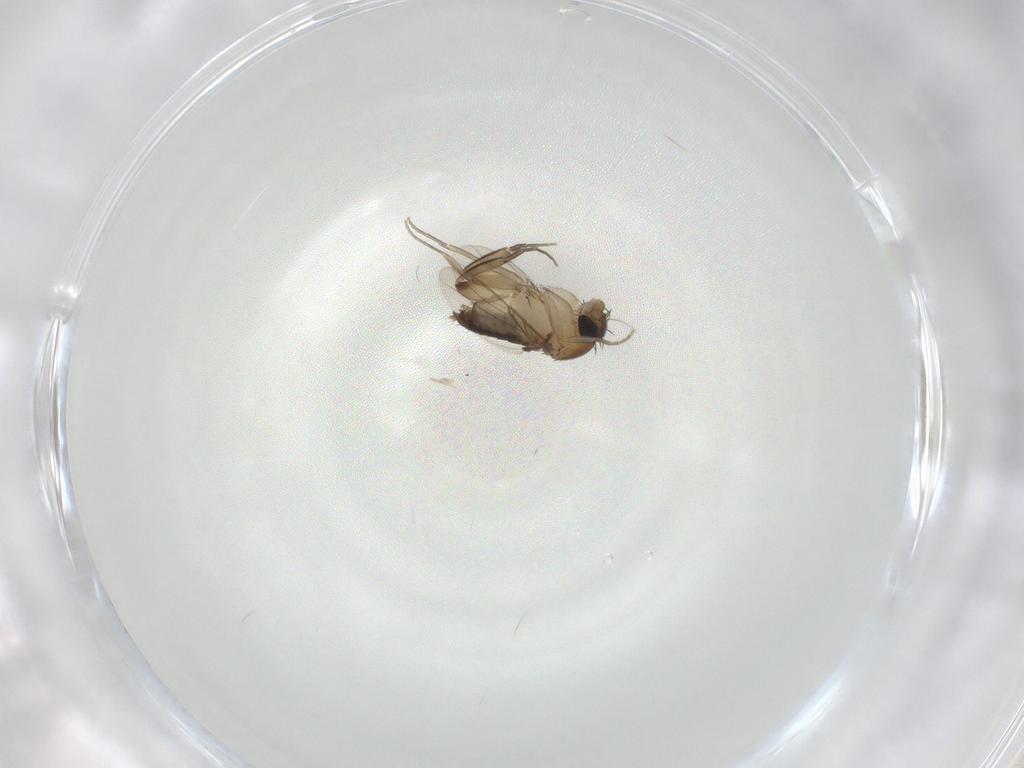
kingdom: Animalia
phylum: Arthropoda
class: Insecta
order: Diptera
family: Phoridae
